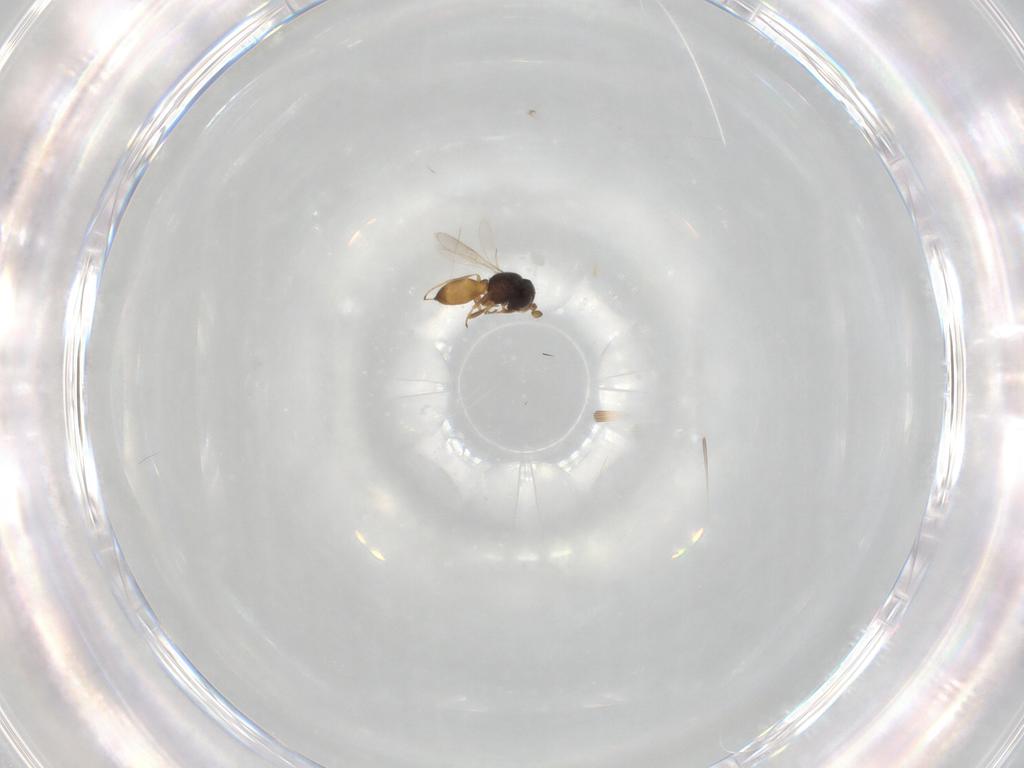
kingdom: Animalia
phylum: Arthropoda
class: Insecta
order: Hymenoptera
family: Scelionidae
